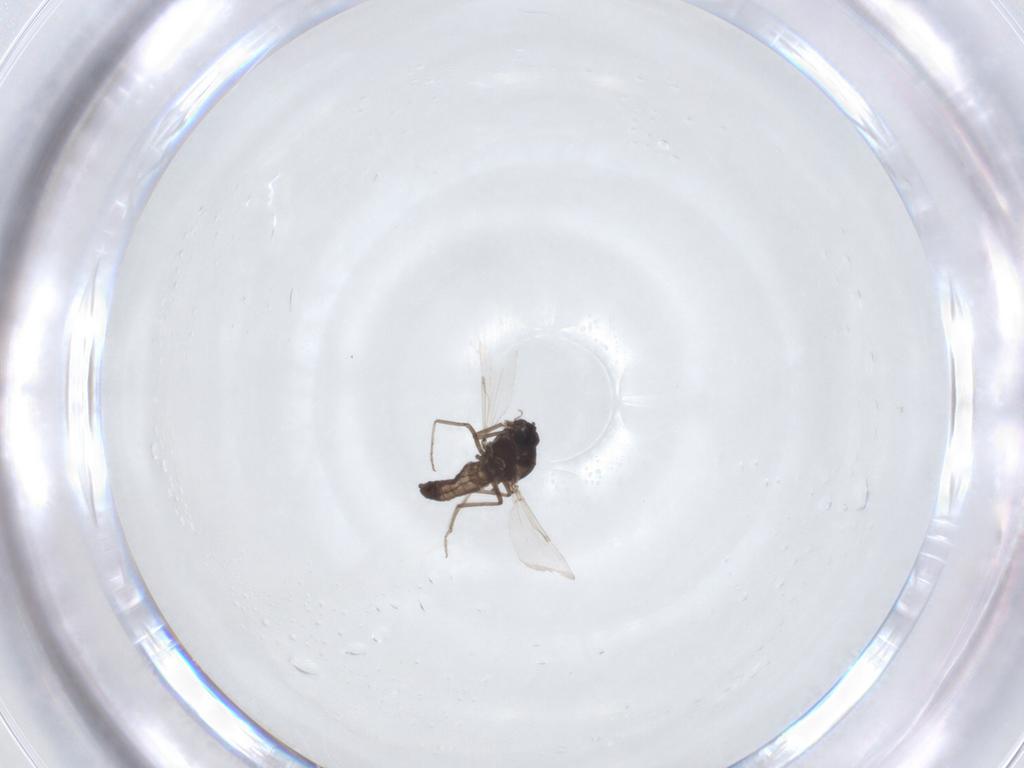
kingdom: Animalia
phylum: Arthropoda
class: Insecta
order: Diptera
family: Ceratopogonidae
